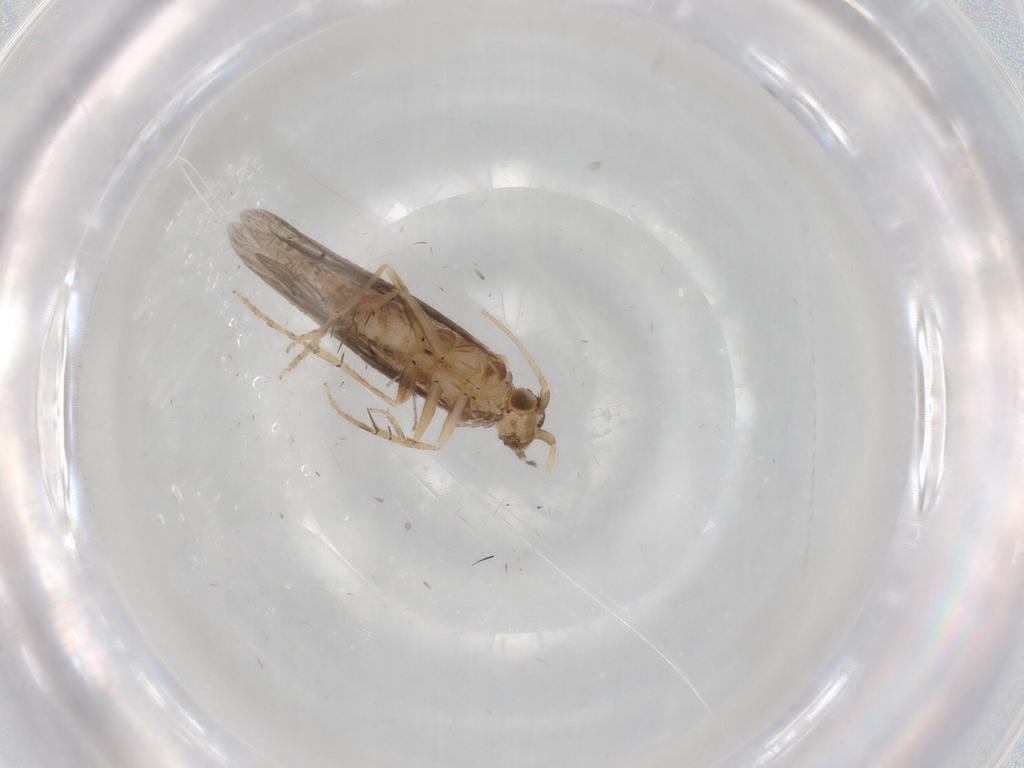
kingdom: Animalia
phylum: Arthropoda
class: Insecta
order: Trichoptera
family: Glossosomatidae
